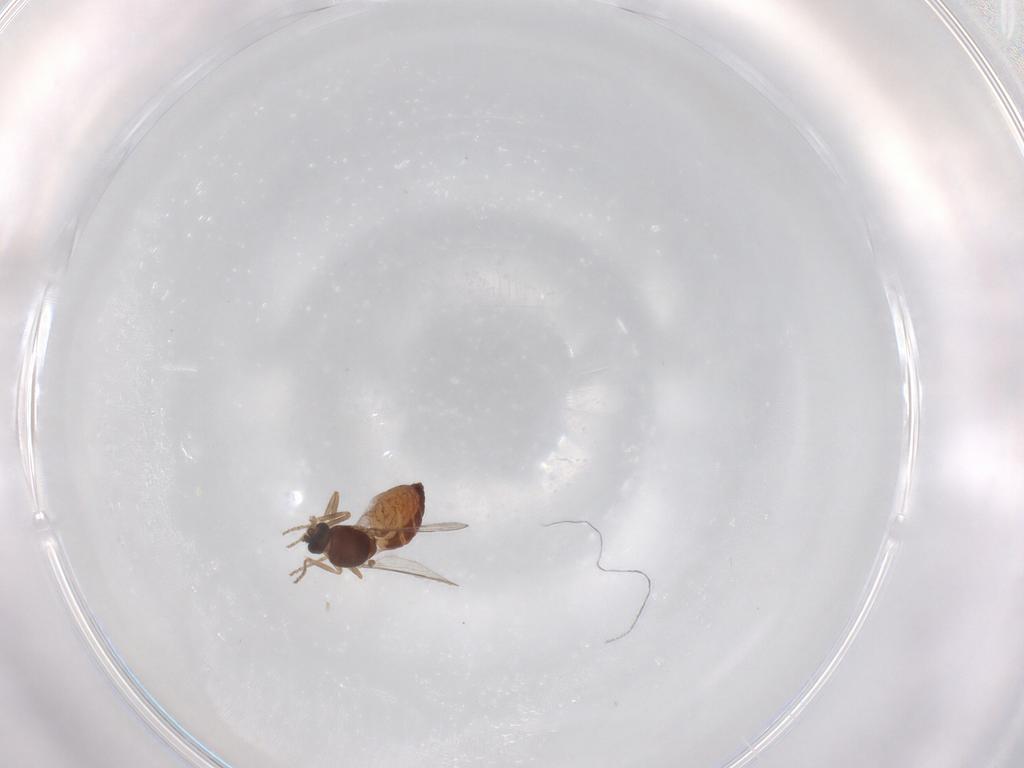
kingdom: Animalia
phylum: Arthropoda
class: Insecta
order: Diptera
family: Ceratopogonidae
